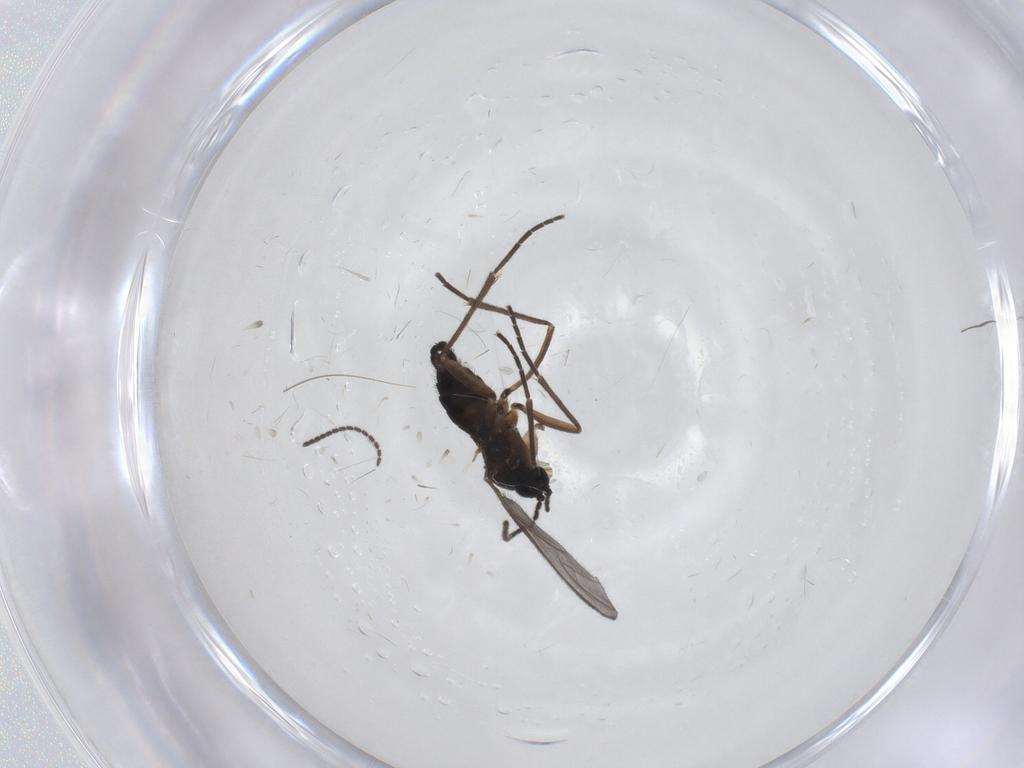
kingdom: Animalia
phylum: Arthropoda
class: Insecta
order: Diptera
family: Sciaridae
